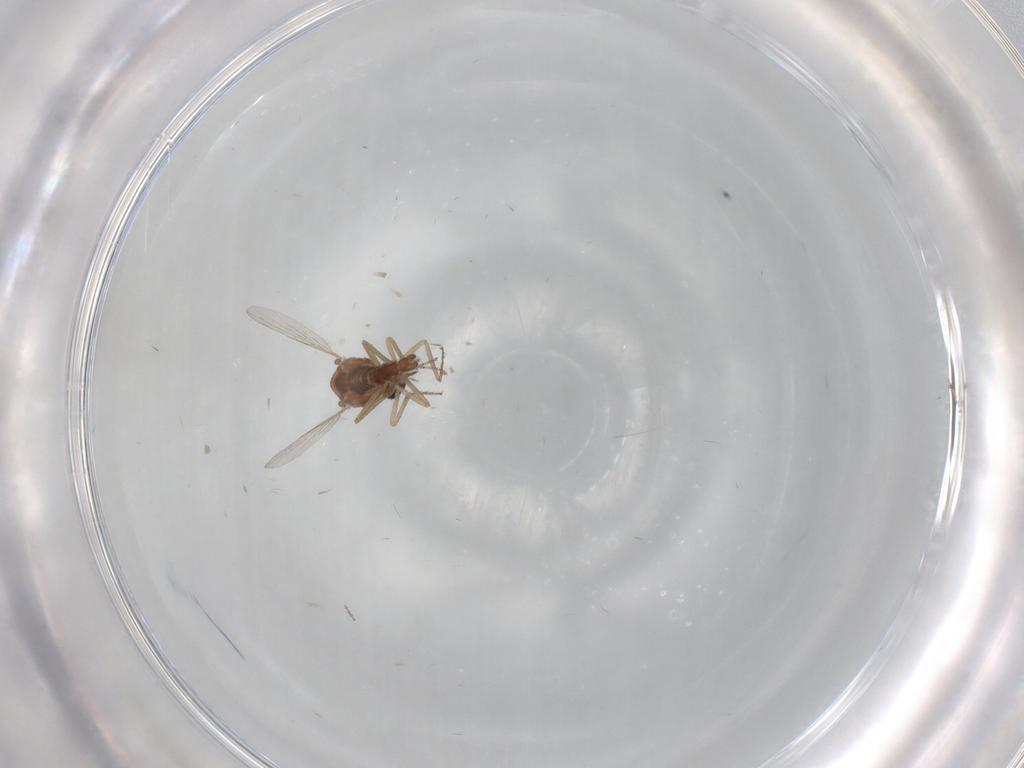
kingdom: Animalia
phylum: Arthropoda
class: Insecta
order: Diptera
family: Ceratopogonidae
